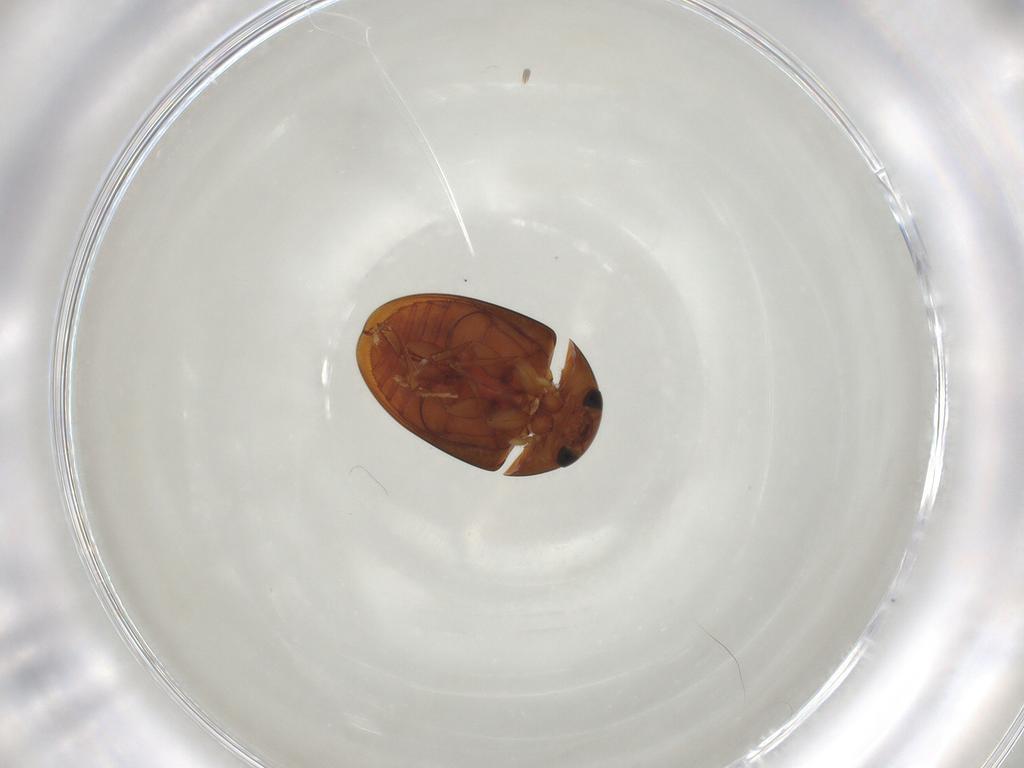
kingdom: Animalia
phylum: Arthropoda
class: Insecta
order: Coleoptera
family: Phalacridae
